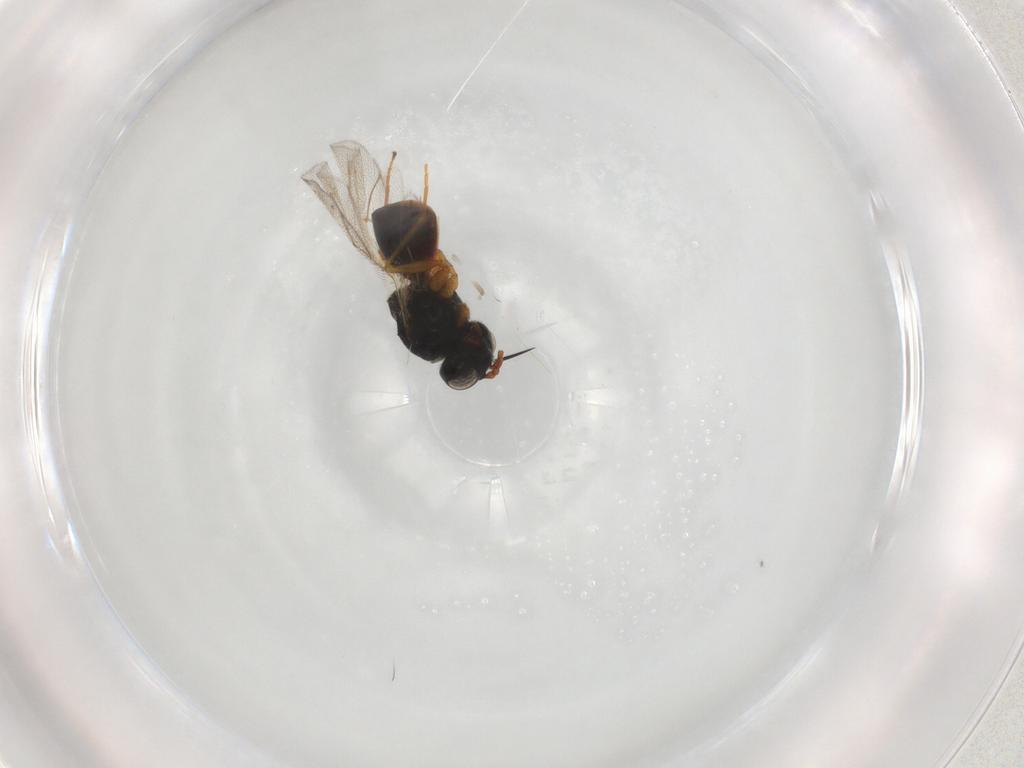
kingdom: Animalia
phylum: Arthropoda
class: Insecta
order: Hymenoptera
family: Figitidae
